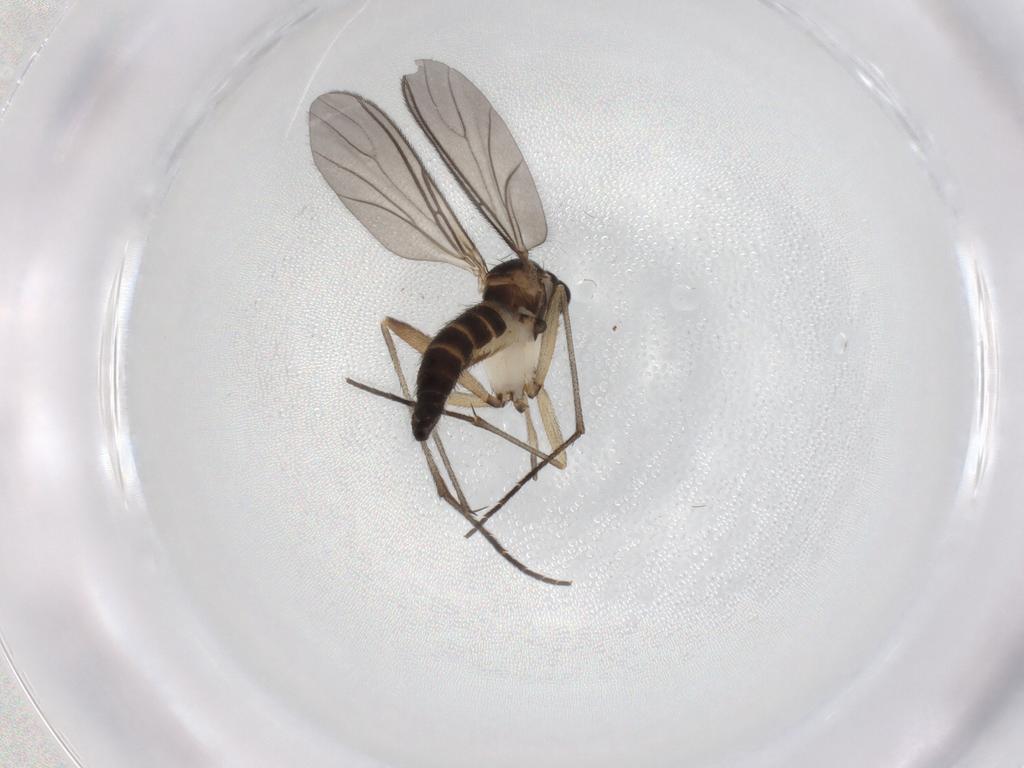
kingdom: Animalia
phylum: Arthropoda
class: Insecta
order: Diptera
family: Sciaridae
